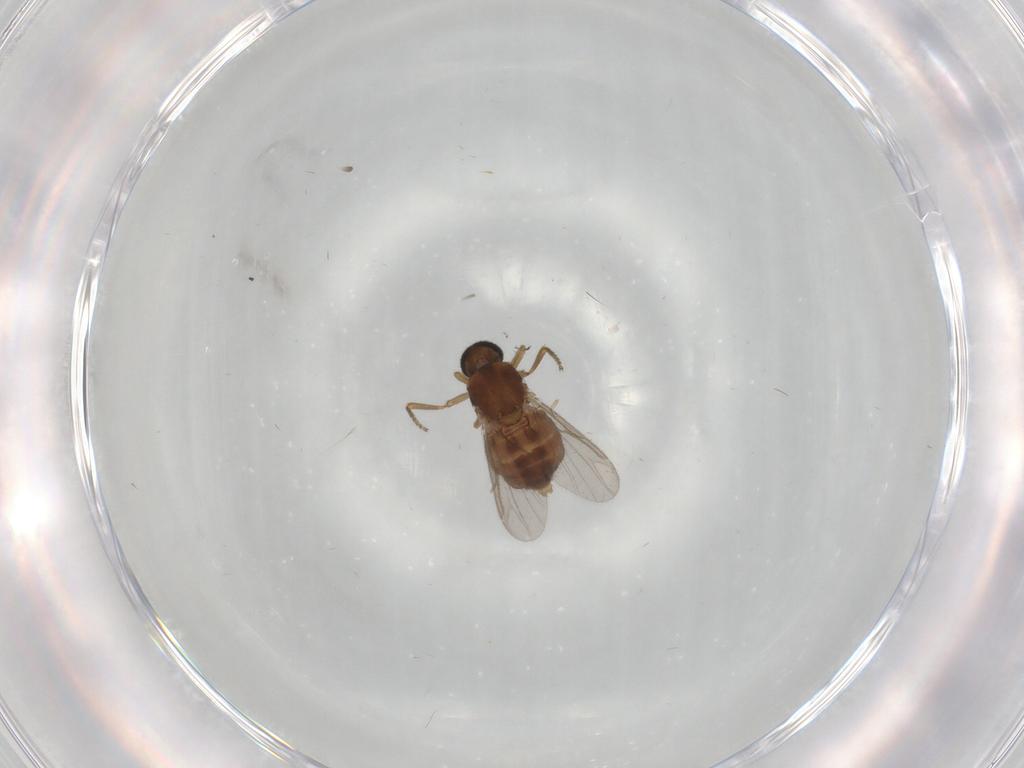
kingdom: Animalia
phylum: Arthropoda
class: Insecta
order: Diptera
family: Ceratopogonidae
